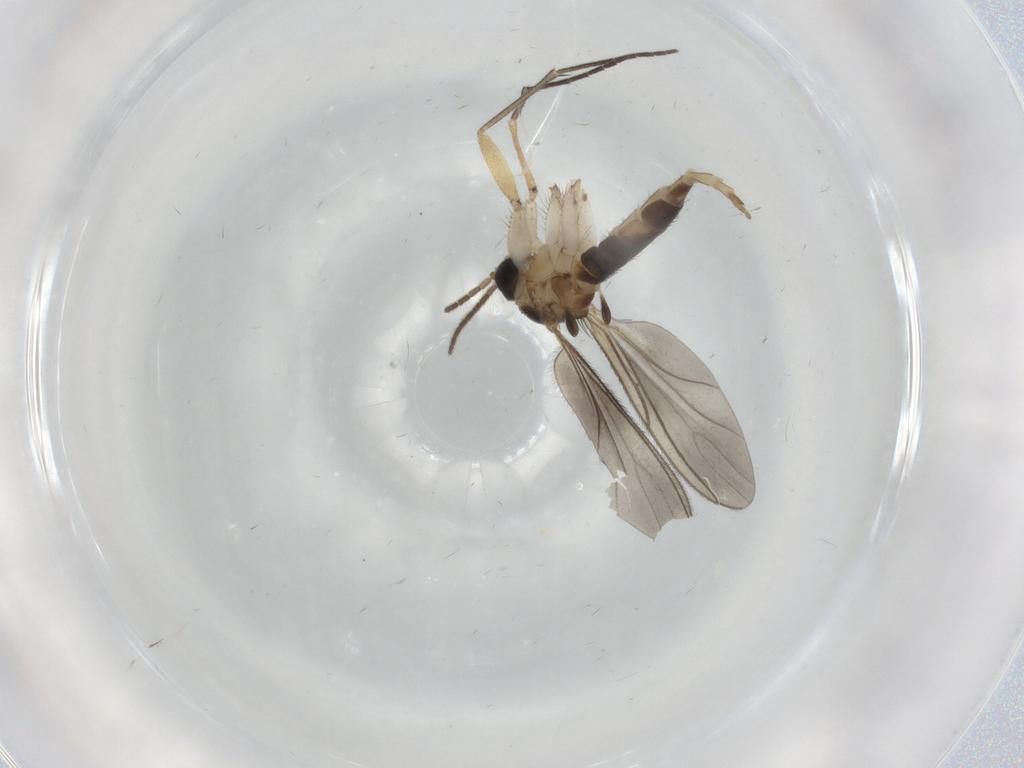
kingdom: Animalia
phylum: Arthropoda
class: Insecta
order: Diptera
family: Sciaridae
